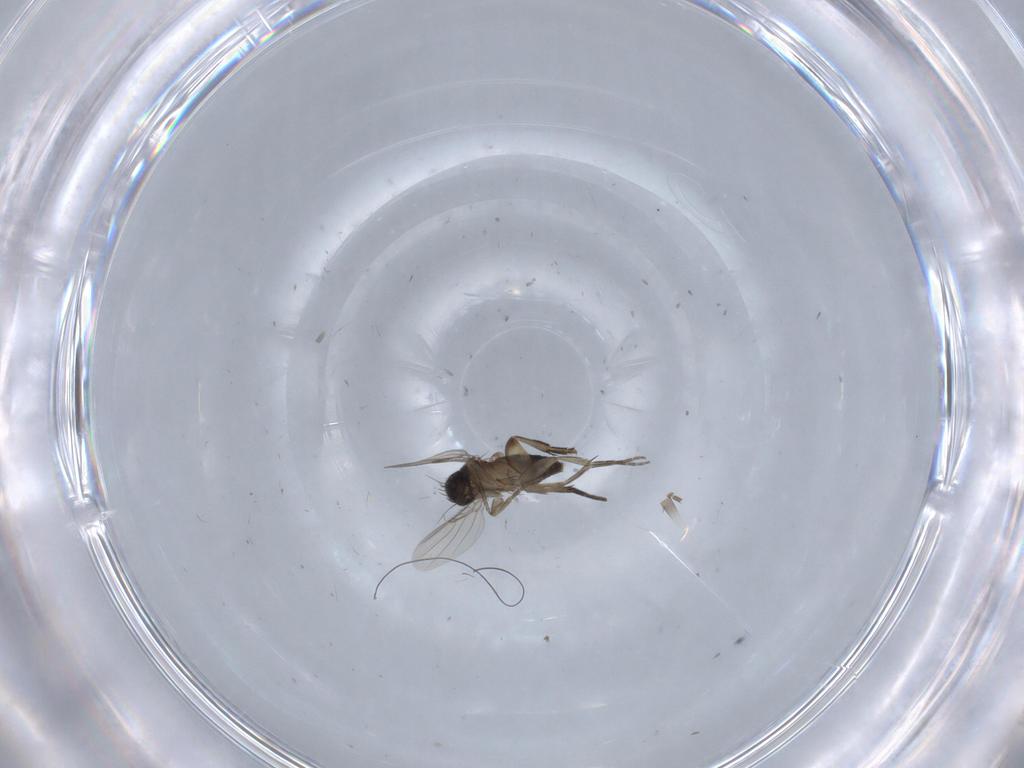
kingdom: Animalia
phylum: Arthropoda
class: Insecta
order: Diptera
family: Phoridae
